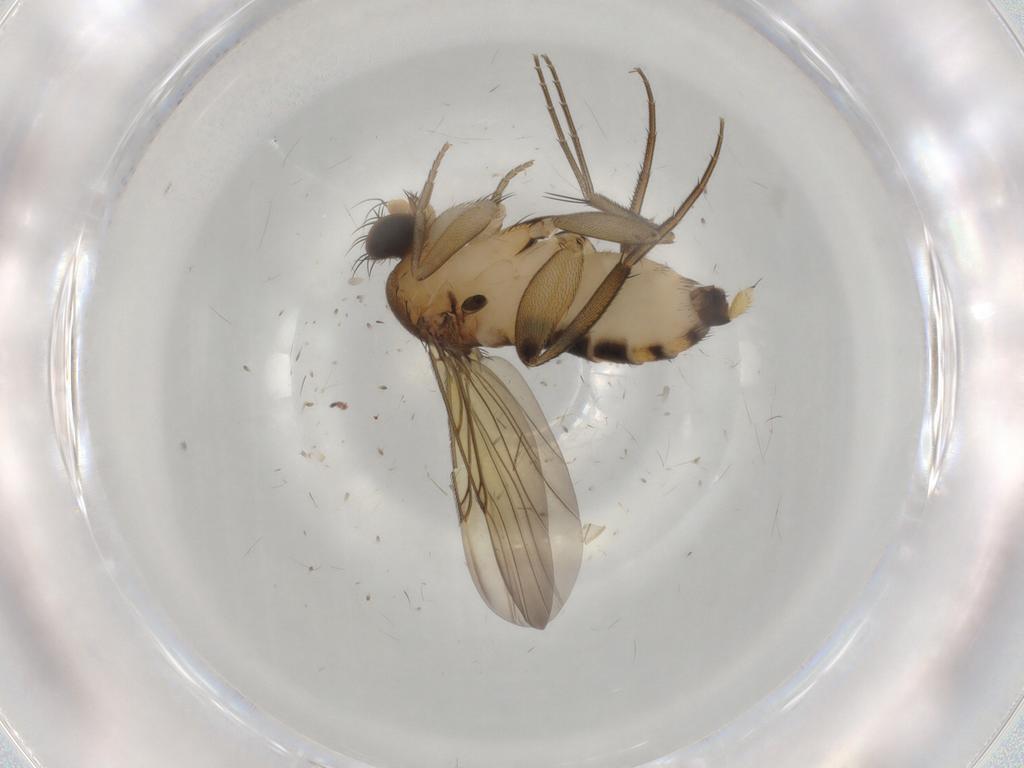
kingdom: Animalia
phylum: Arthropoda
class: Insecta
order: Diptera
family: Phoridae
